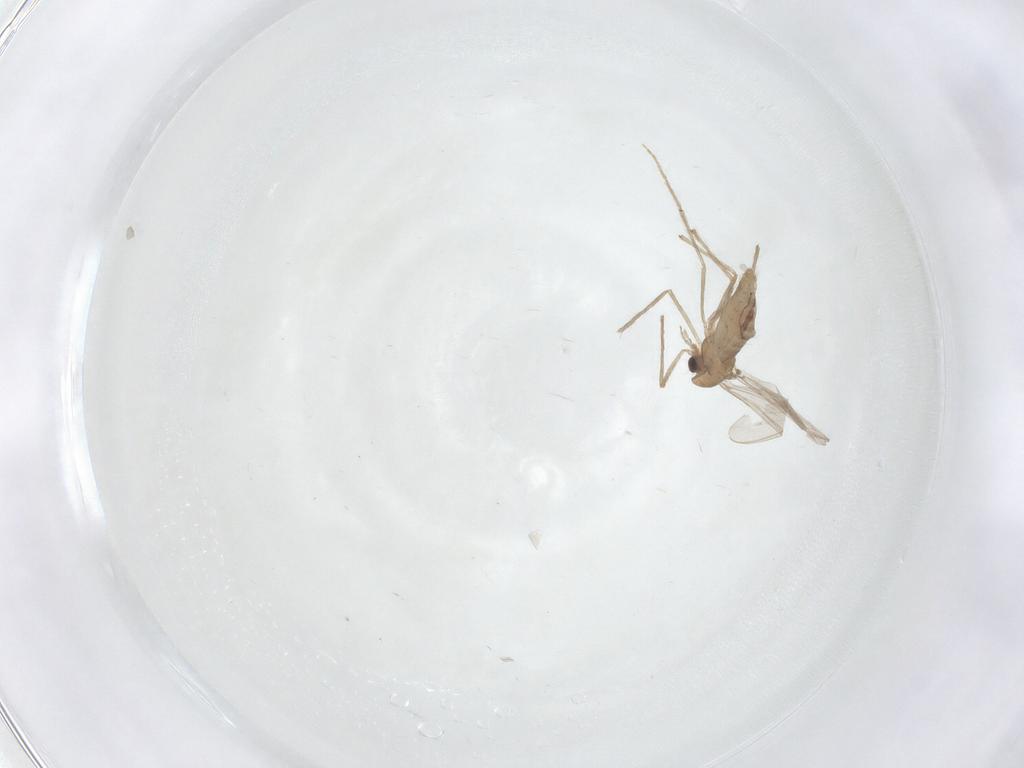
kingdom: Animalia
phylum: Arthropoda
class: Insecta
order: Diptera
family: Chironomidae
